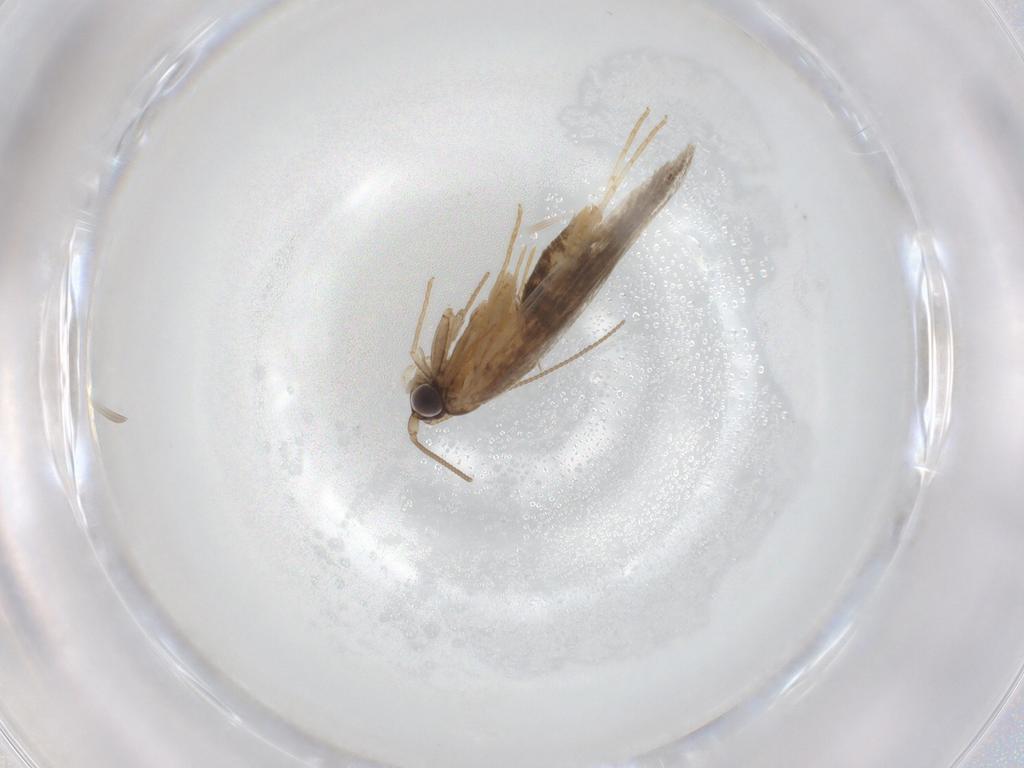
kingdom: Animalia
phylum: Arthropoda
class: Insecta
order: Lepidoptera
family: Tineidae
